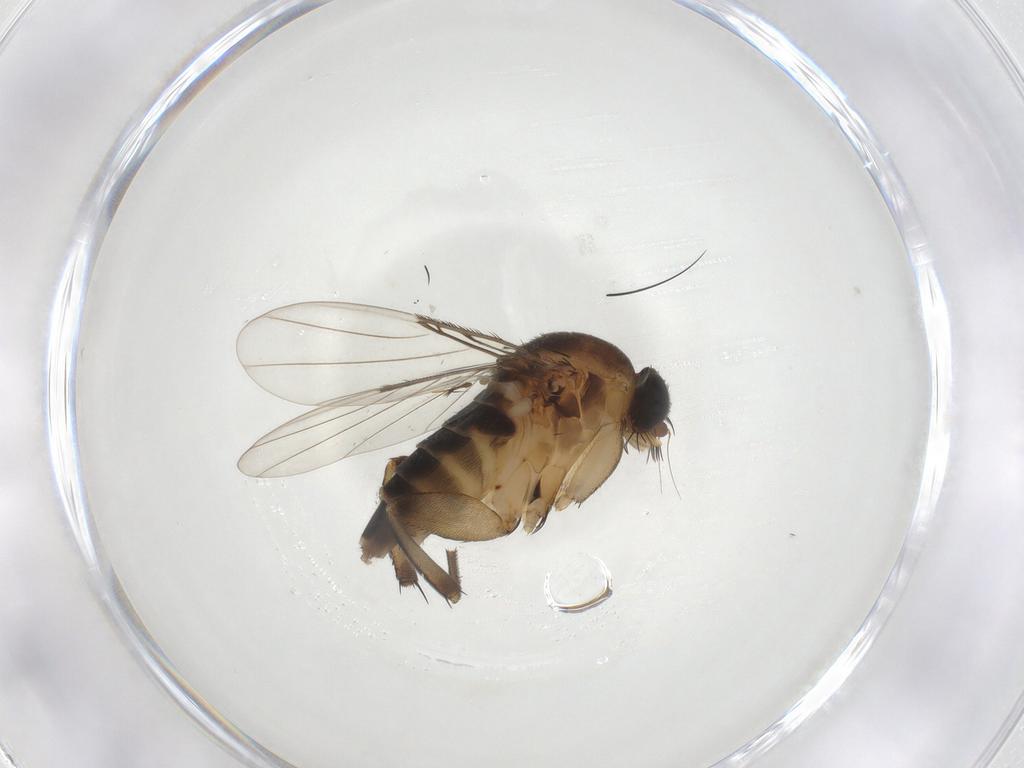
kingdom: Animalia
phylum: Arthropoda
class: Insecta
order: Diptera
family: Phoridae
